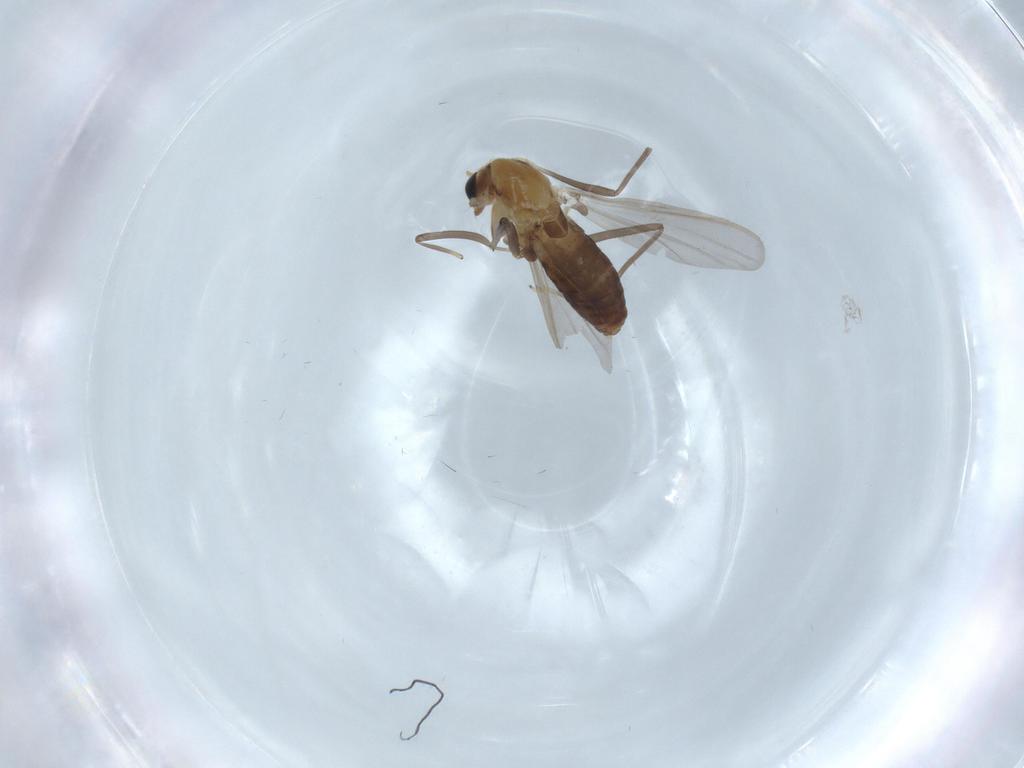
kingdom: Animalia
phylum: Arthropoda
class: Insecta
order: Diptera
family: Chironomidae
